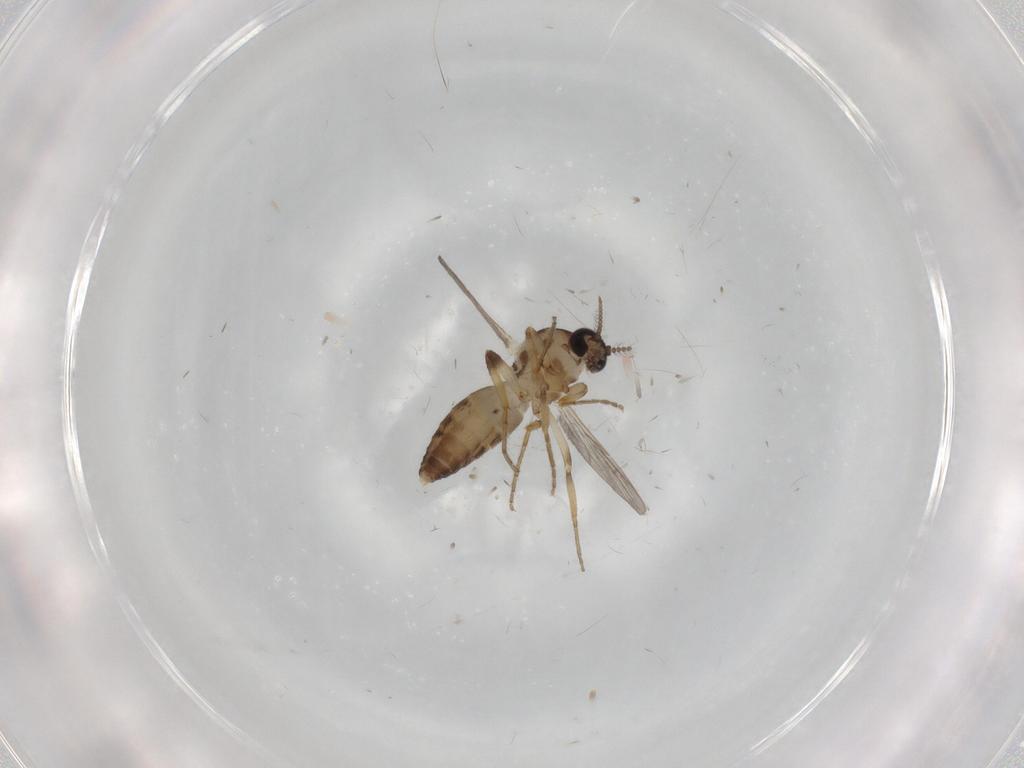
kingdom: Animalia
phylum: Arthropoda
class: Insecta
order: Diptera
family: Ceratopogonidae
